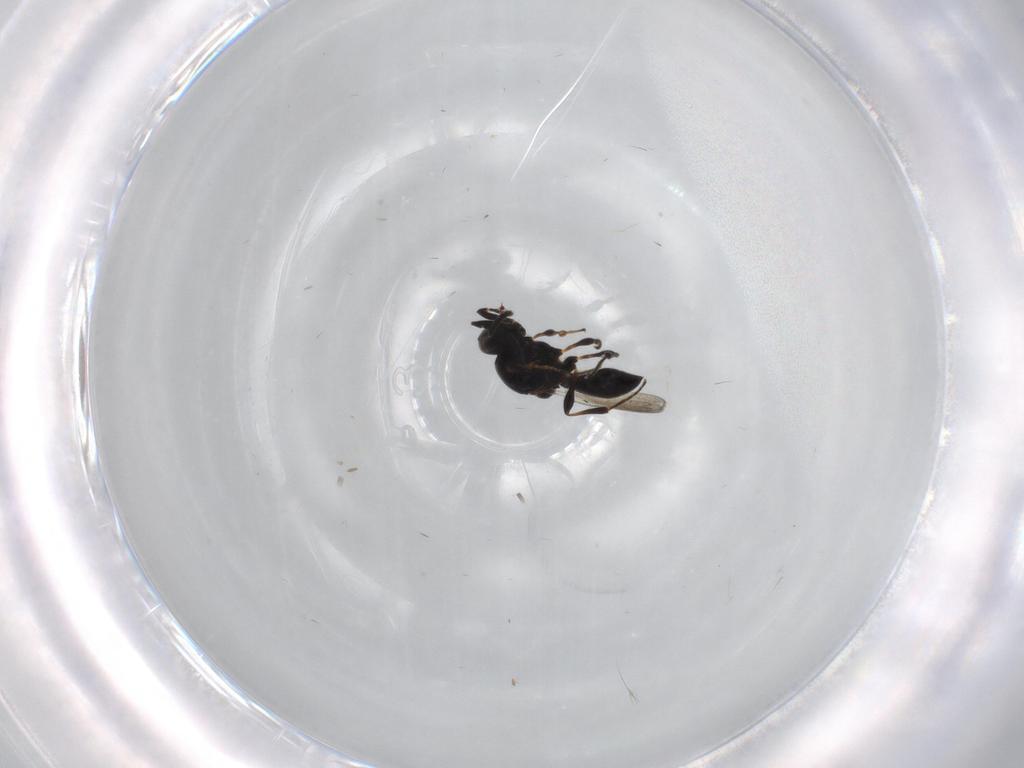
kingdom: Animalia
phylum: Arthropoda
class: Insecta
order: Hymenoptera
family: Platygastridae
